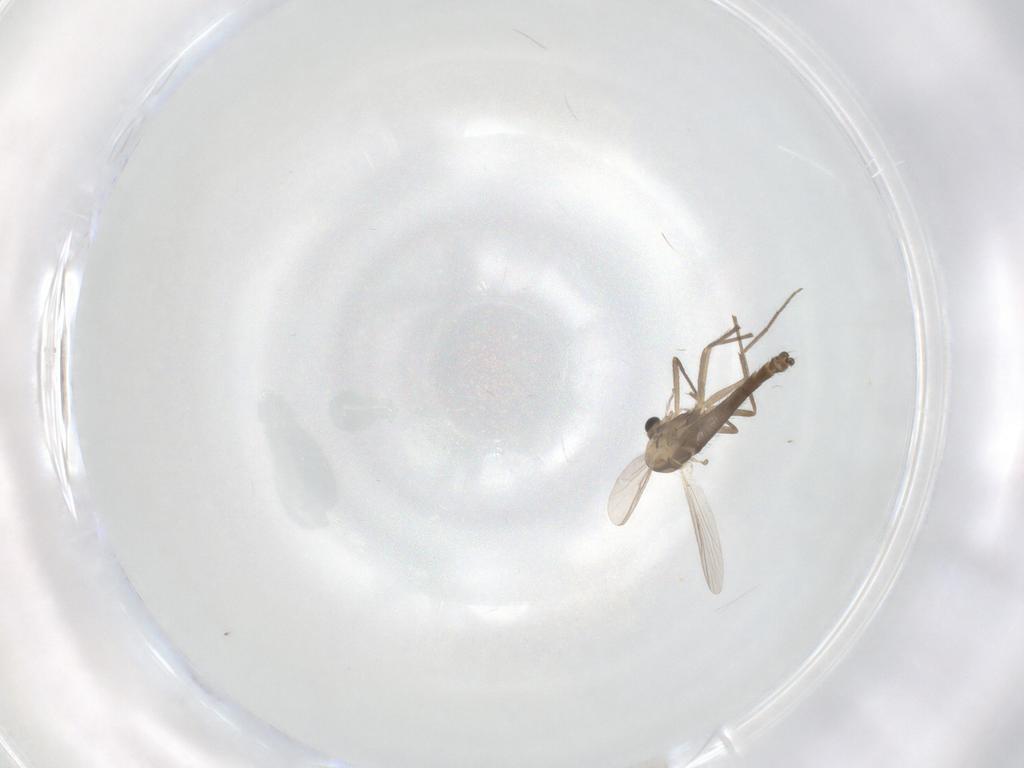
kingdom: Animalia
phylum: Arthropoda
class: Insecta
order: Diptera
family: Chironomidae
